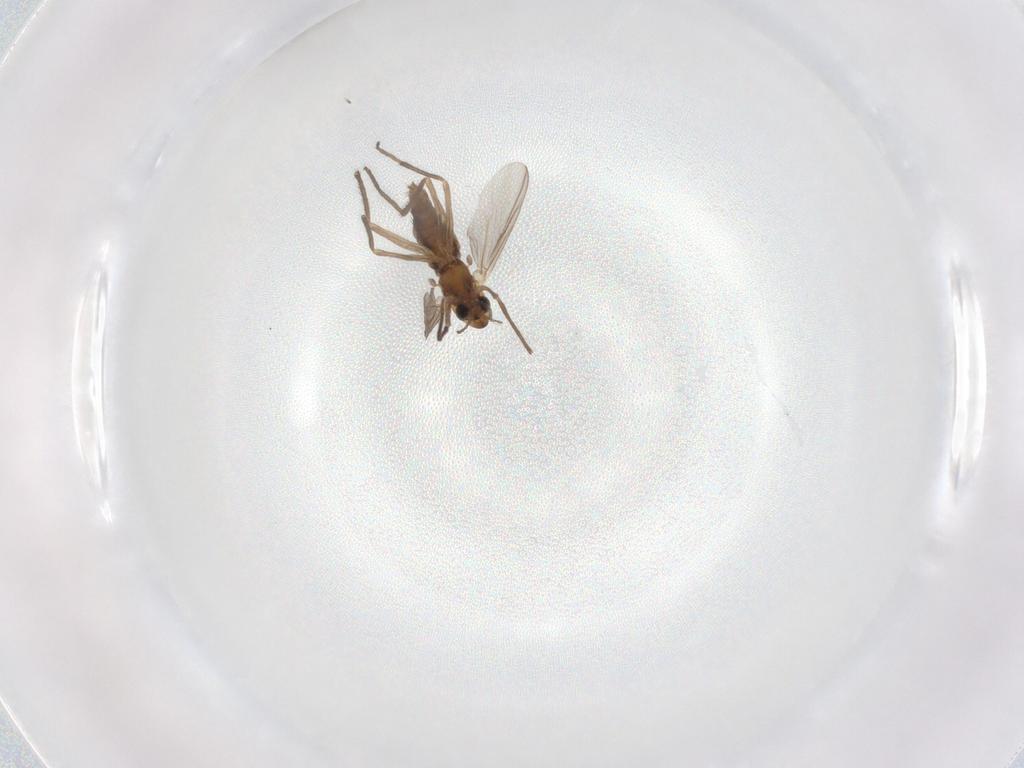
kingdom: Animalia
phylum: Arthropoda
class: Insecta
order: Diptera
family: Chironomidae
